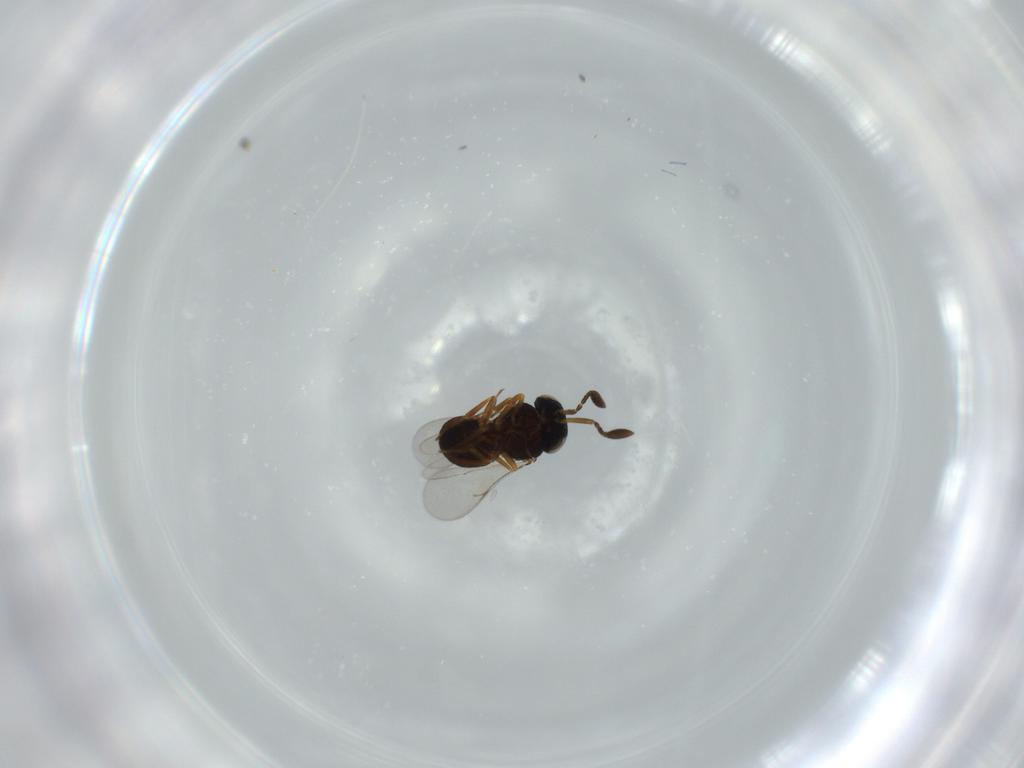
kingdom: Animalia
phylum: Arthropoda
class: Insecta
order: Hymenoptera
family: Scelionidae
